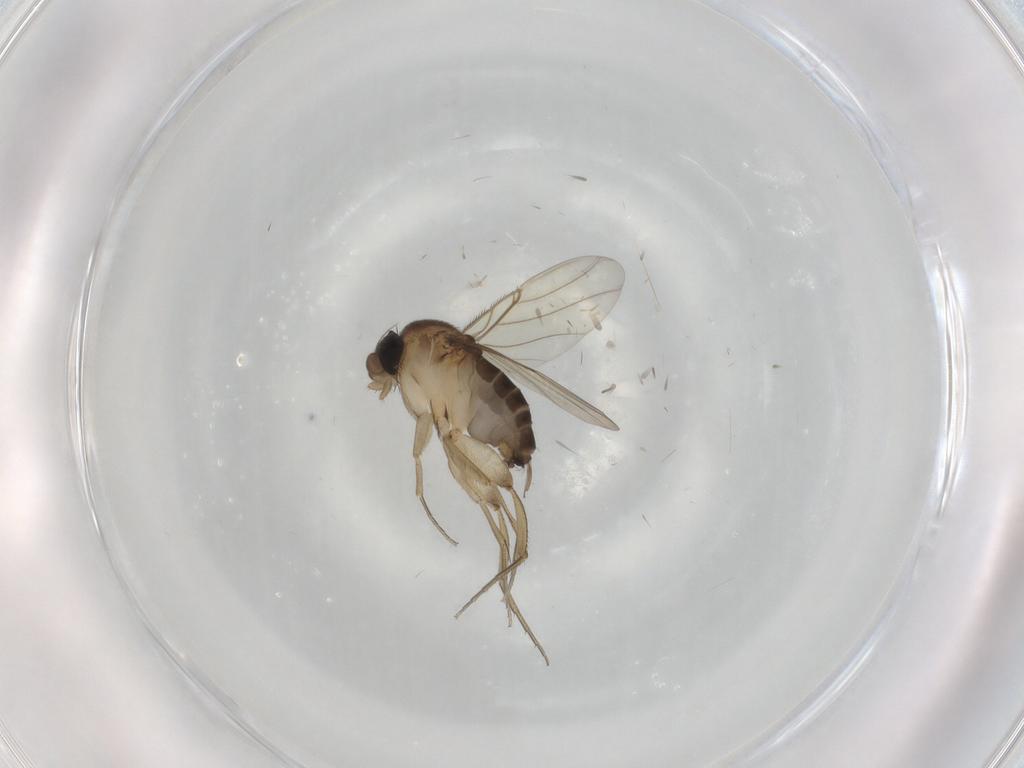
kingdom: Animalia
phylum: Arthropoda
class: Insecta
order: Diptera
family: Phoridae
